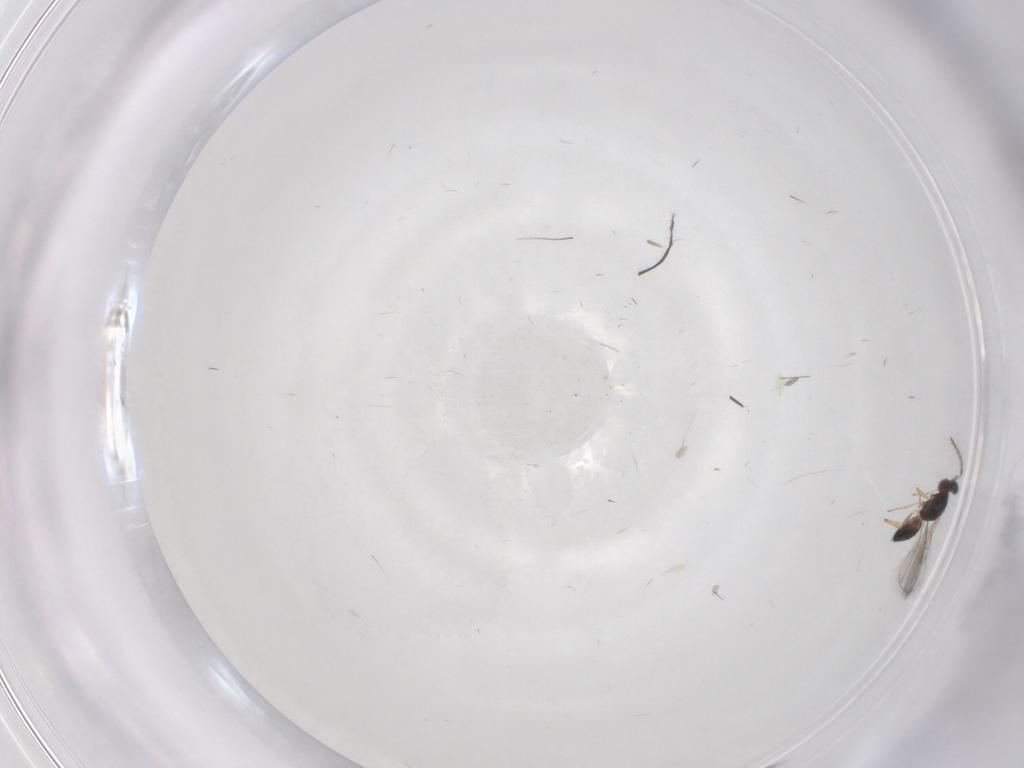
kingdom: Animalia
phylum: Arthropoda
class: Insecta
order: Hymenoptera
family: Eulophidae
